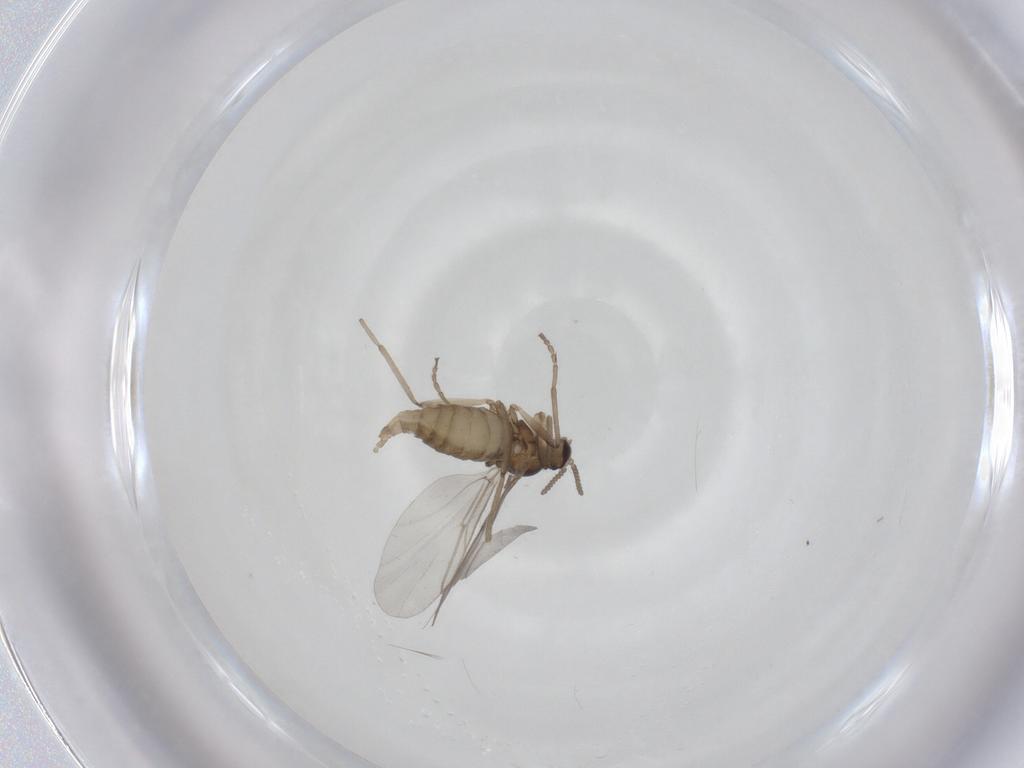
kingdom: Animalia
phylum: Arthropoda
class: Insecta
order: Diptera
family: Cecidomyiidae
